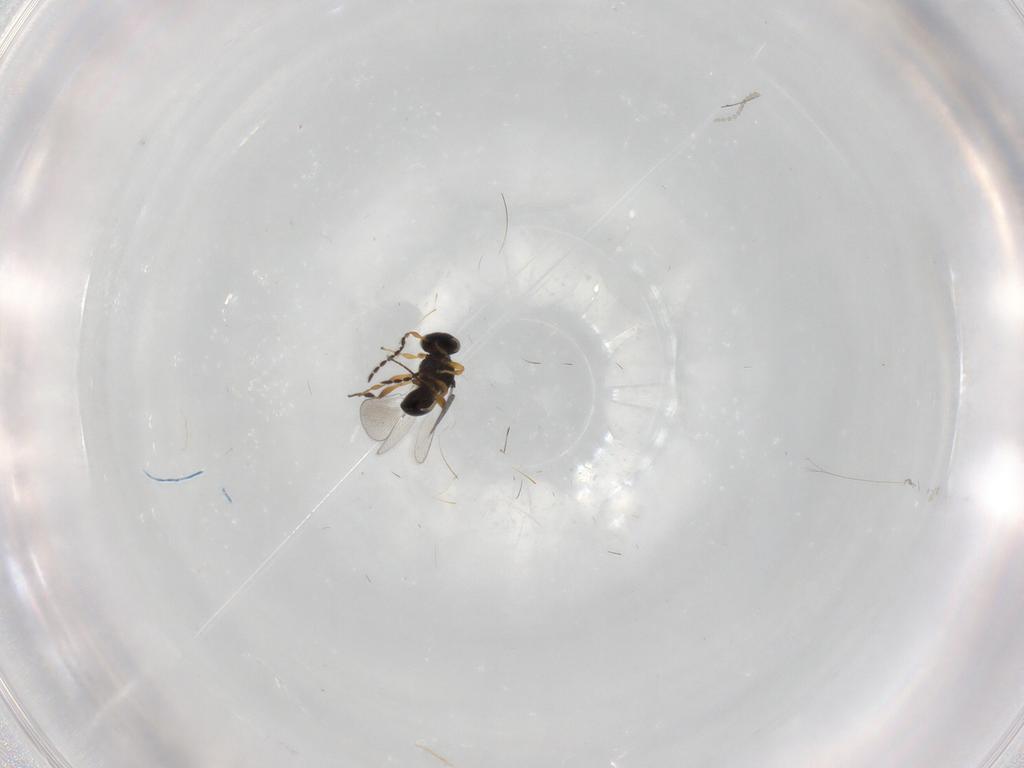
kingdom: Animalia
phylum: Arthropoda
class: Insecta
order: Hymenoptera
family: Platygastridae
